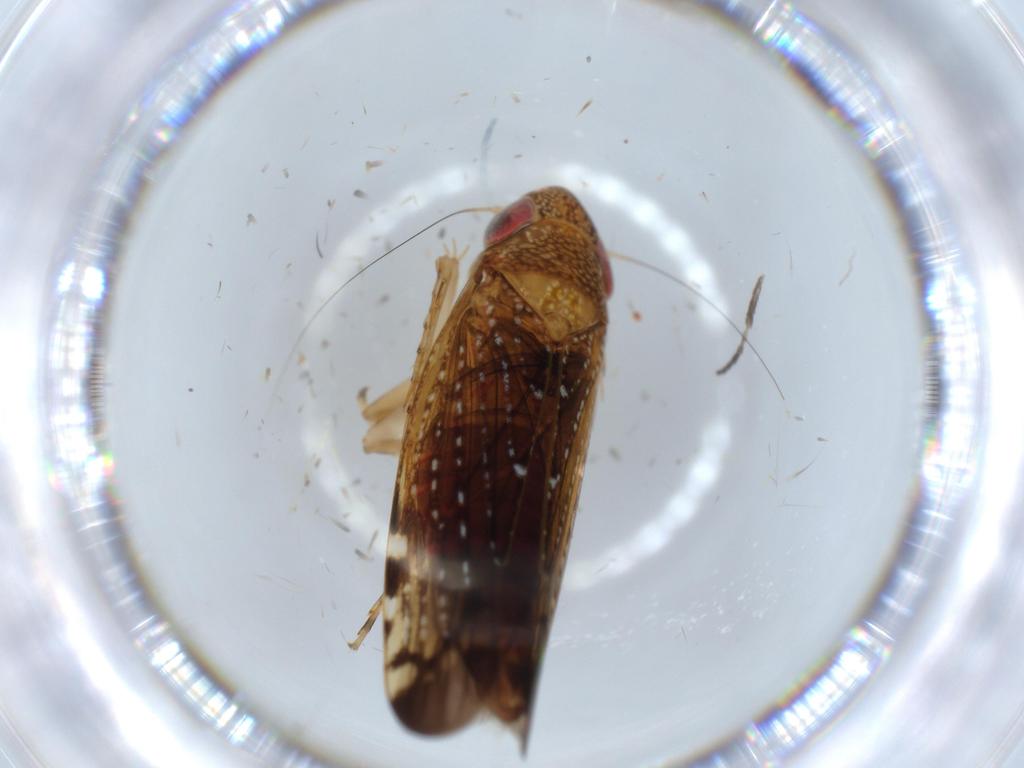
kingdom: Animalia
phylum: Arthropoda
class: Insecta
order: Hemiptera
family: Cicadellidae
